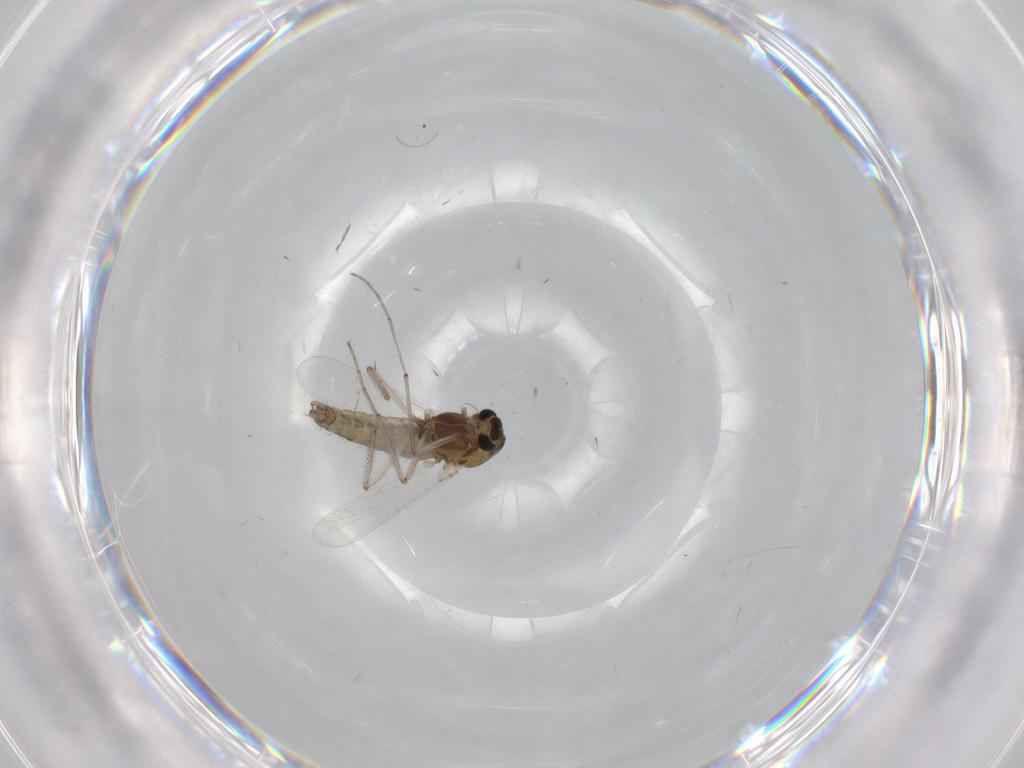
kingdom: Animalia
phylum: Arthropoda
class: Insecta
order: Diptera
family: Chironomidae
